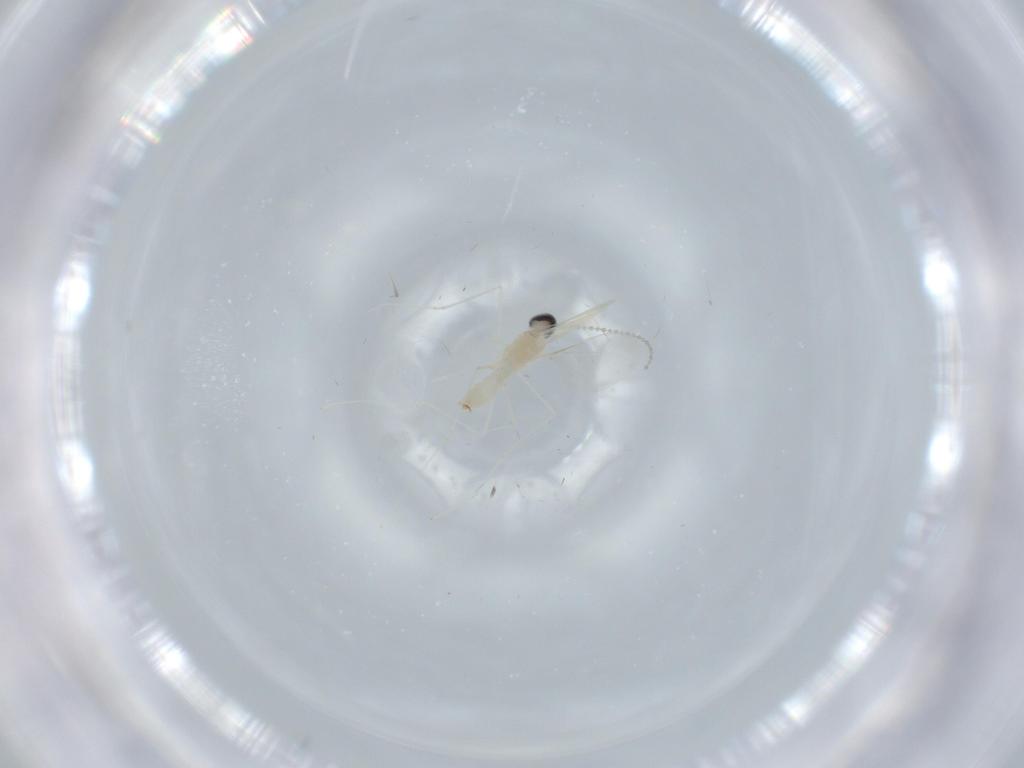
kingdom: Animalia
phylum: Arthropoda
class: Insecta
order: Diptera
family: Cecidomyiidae
